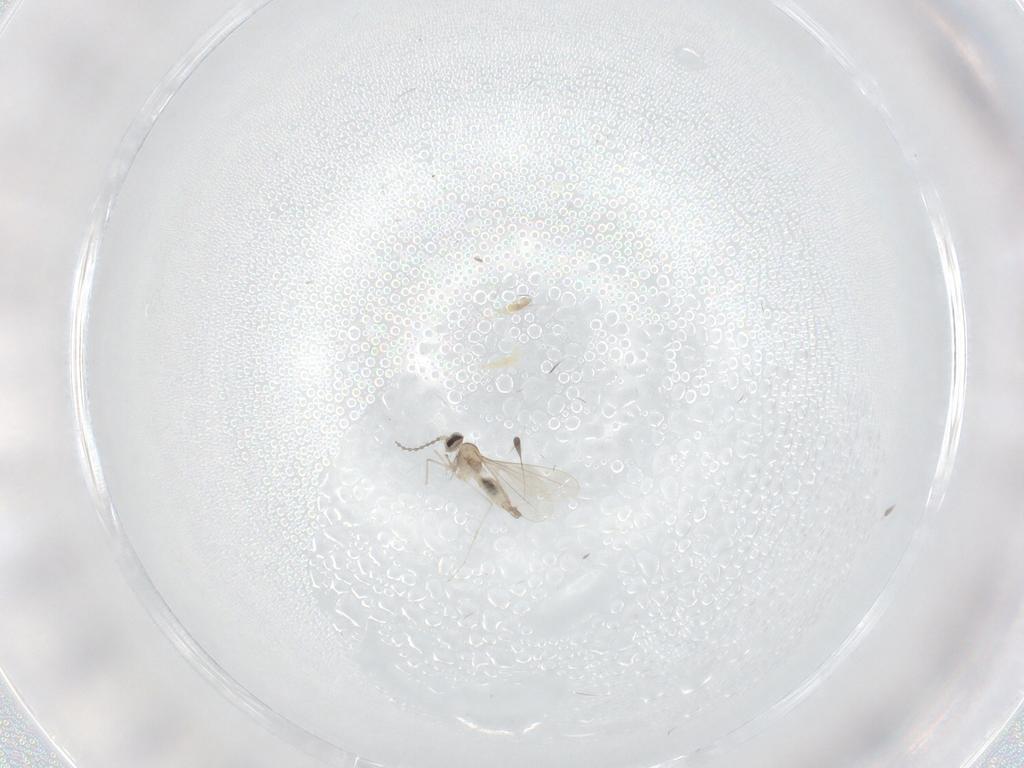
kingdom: Animalia
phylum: Arthropoda
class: Insecta
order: Diptera
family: Cecidomyiidae
